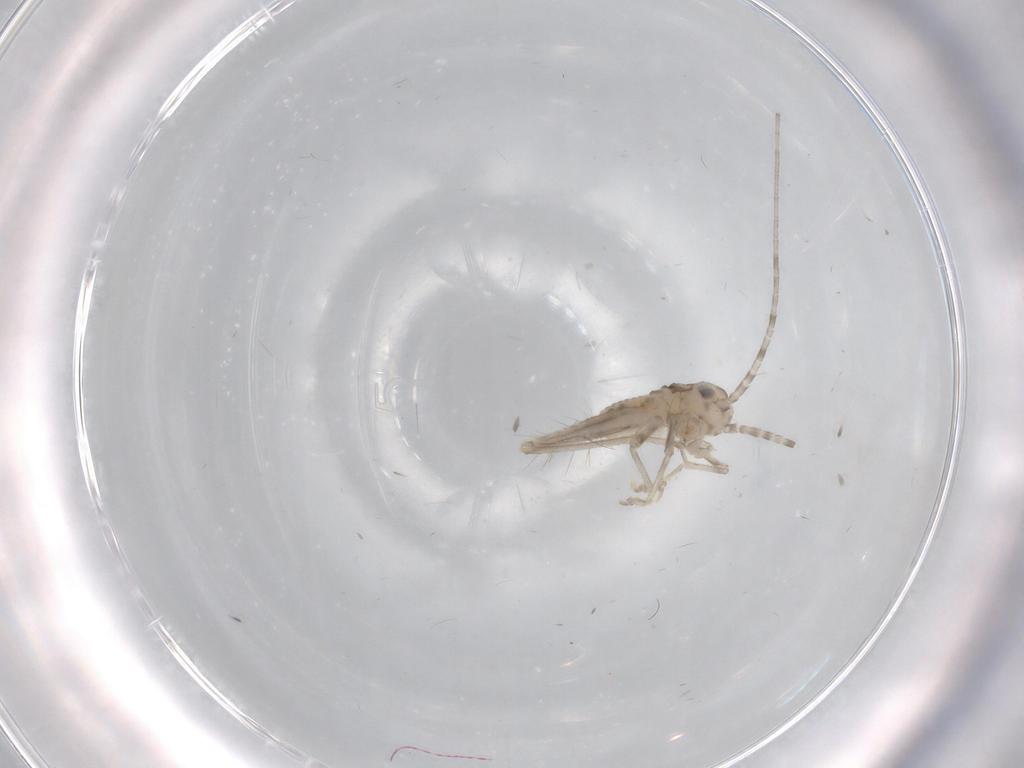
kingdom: Animalia
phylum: Arthropoda
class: Insecta
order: Orthoptera
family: Trigonidiidae
